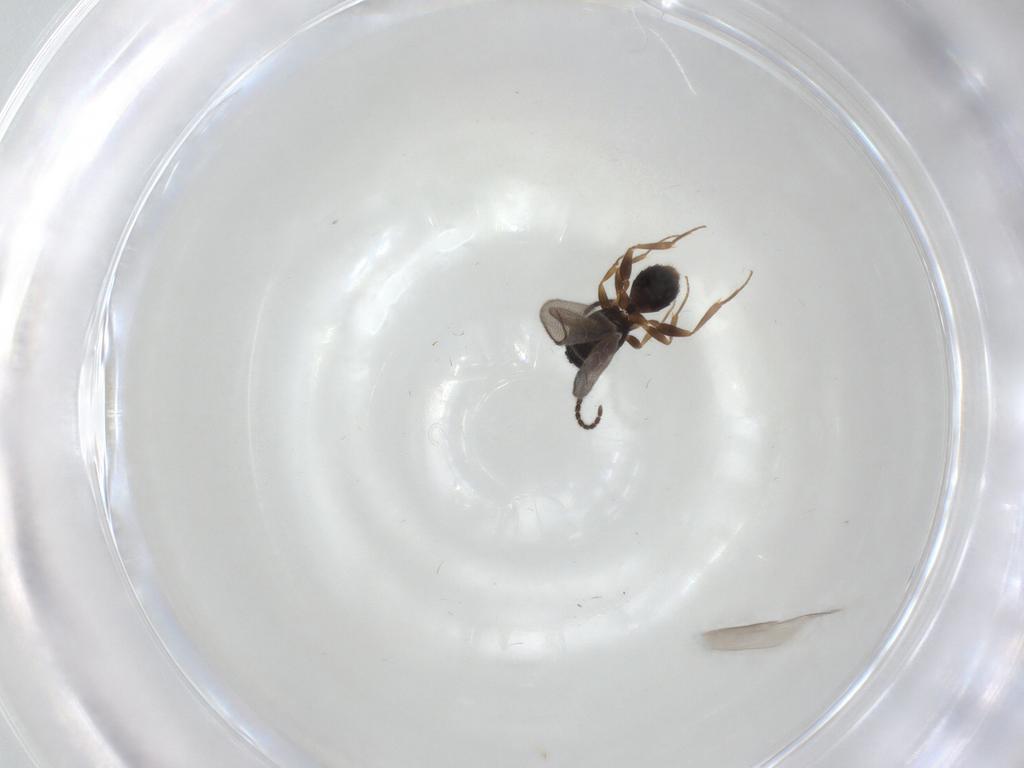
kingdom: Animalia
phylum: Arthropoda
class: Insecta
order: Hymenoptera
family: Bethylidae
